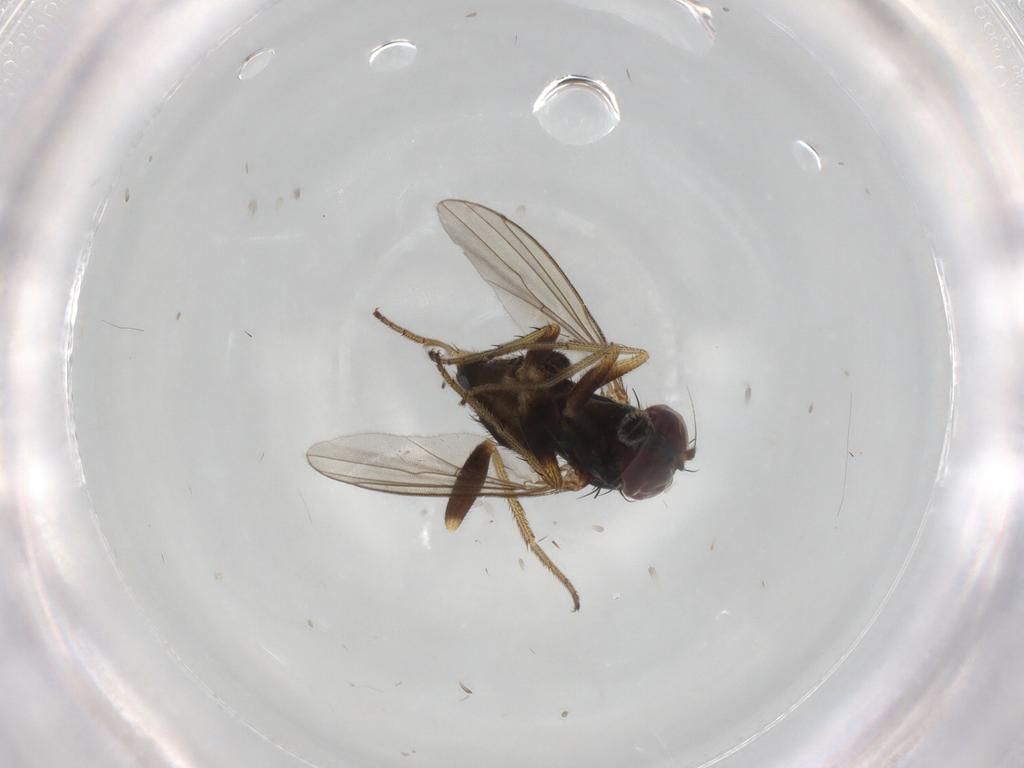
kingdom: Animalia
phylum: Arthropoda
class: Insecta
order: Diptera
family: Dolichopodidae
